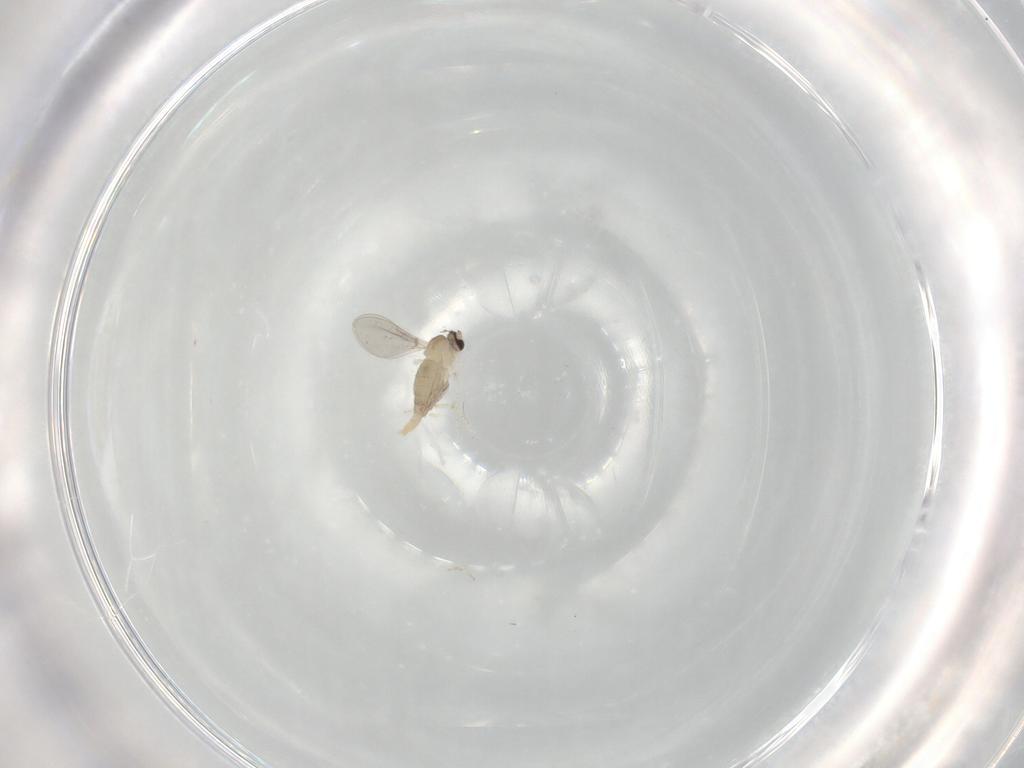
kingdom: Animalia
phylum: Arthropoda
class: Insecta
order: Diptera
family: Cecidomyiidae
